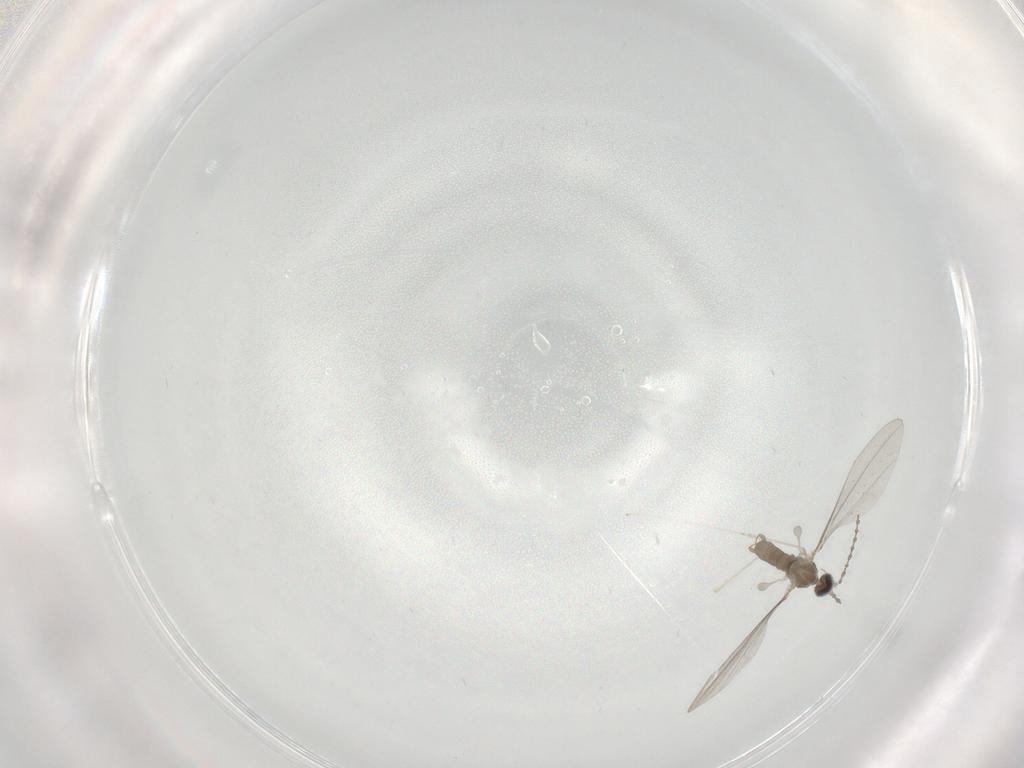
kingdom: Animalia
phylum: Arthropoda
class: Insecta
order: Diptera
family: Cecidomyiidae
